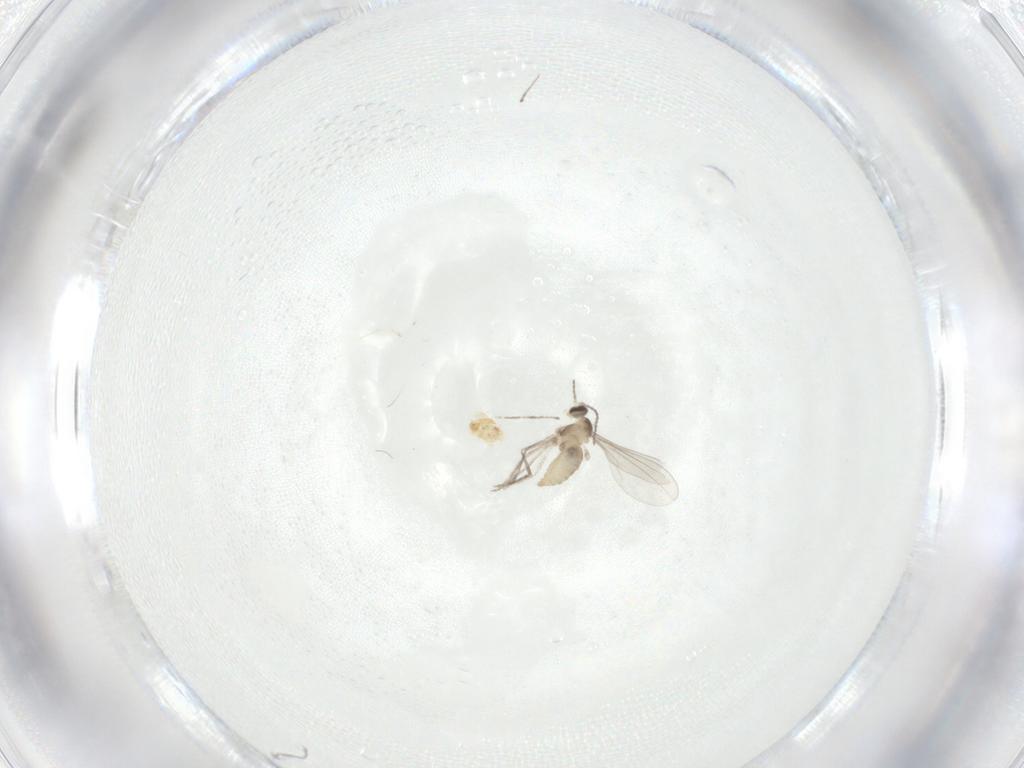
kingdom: Animalia
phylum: Arthropoda
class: Insecta
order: Diptera
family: Cecidomyiidae
